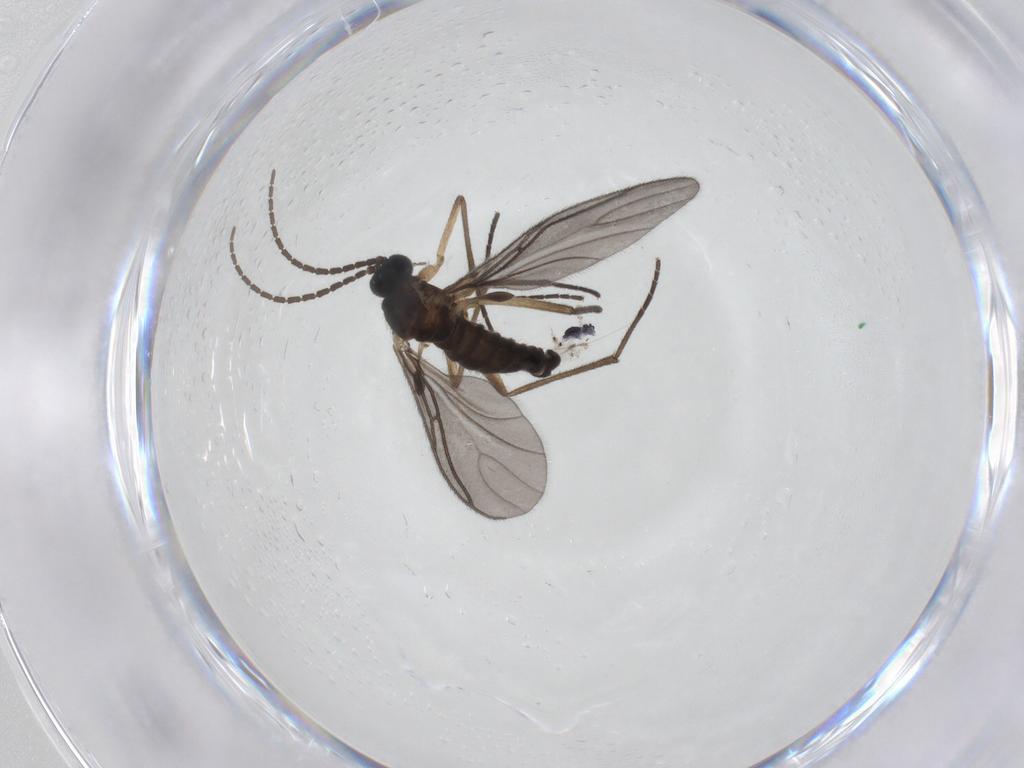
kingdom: Animalia
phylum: Arthropoda
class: Insecta
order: Diptera
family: Sciaridae
